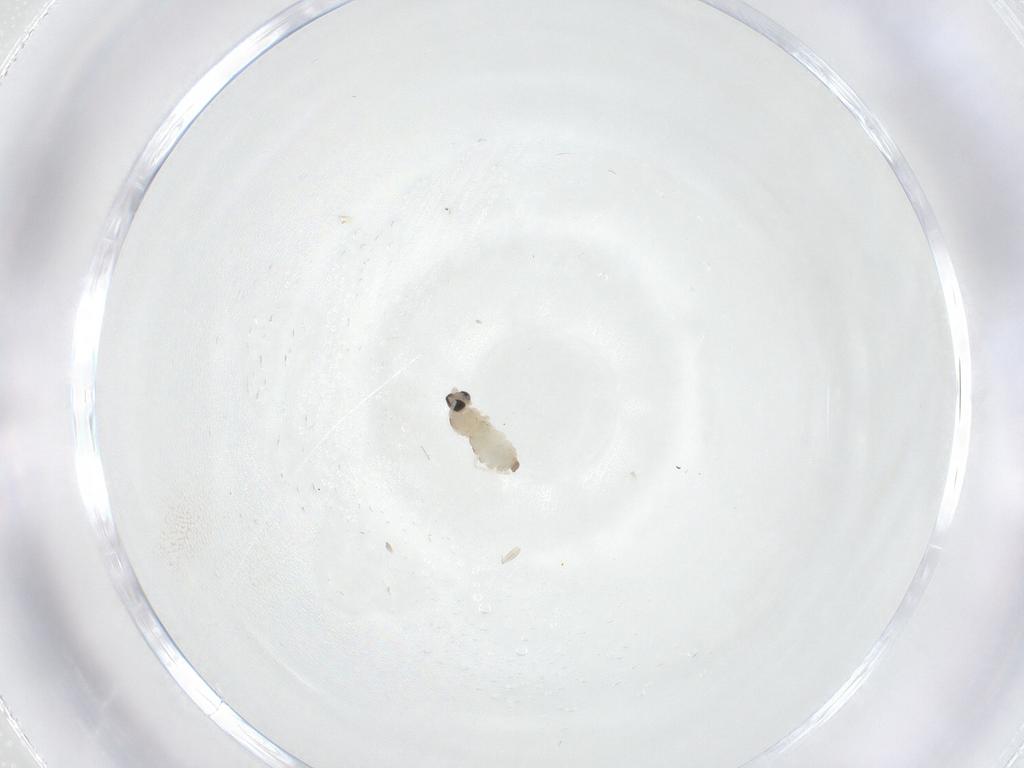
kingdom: Animalia
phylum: Arthropoda
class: Insecta
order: Diptera
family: Cecidomyiidae
